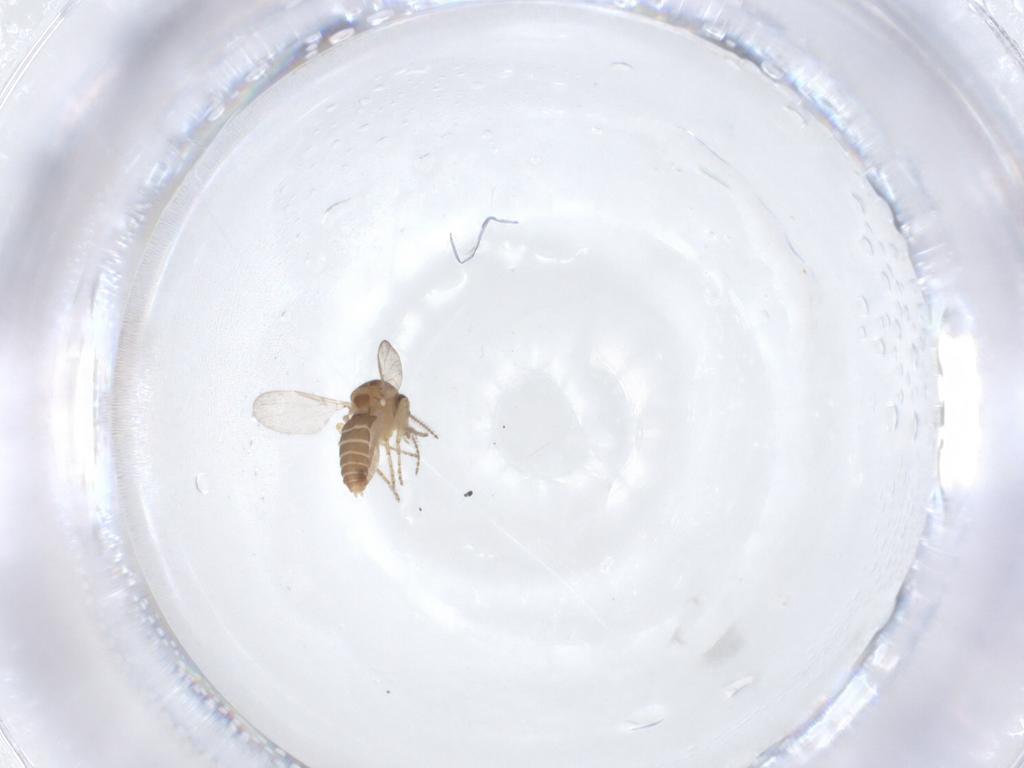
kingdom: Animalia
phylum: Arthropoda
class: Insecta
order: Diptera
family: Ceratopogonidae
